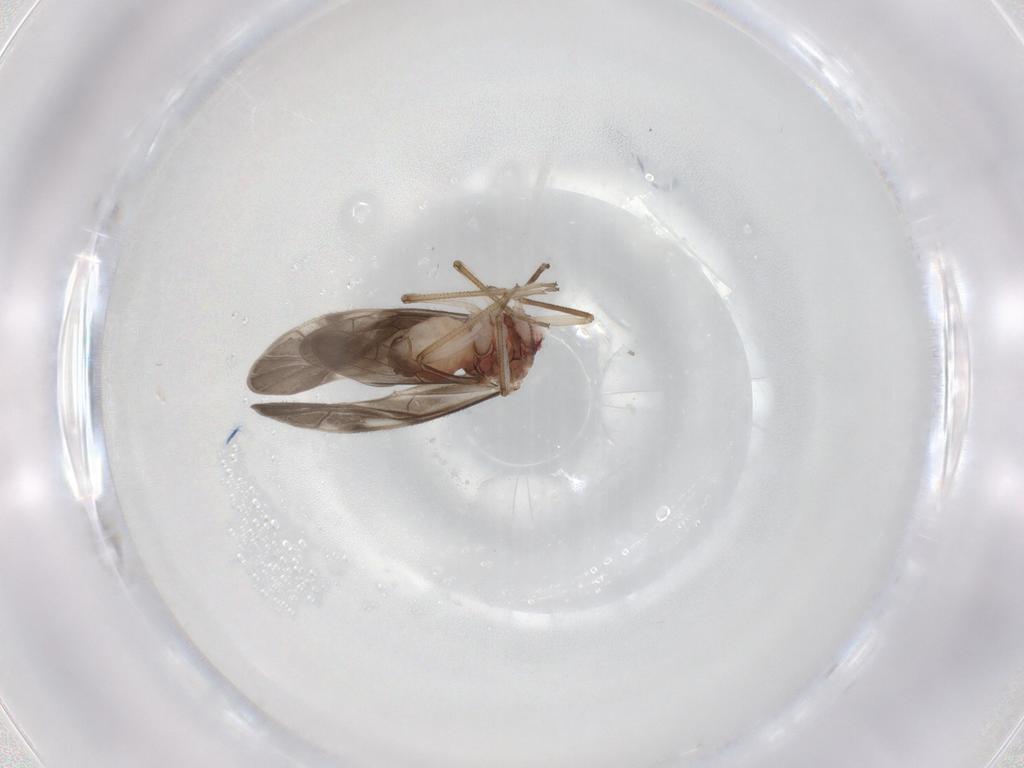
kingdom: Animalia
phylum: Arthropoda
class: Insecta
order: Psocodea
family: Caeciliusidae
